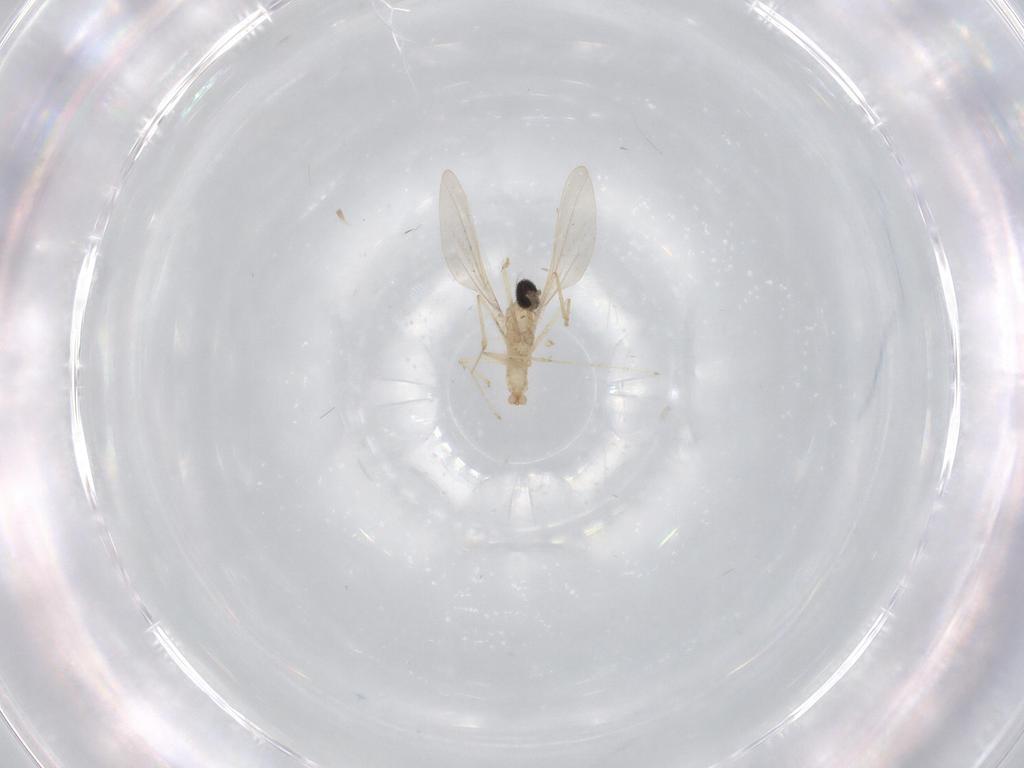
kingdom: Animalia
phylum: Arthropoda
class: Insecta
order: Diptera
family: Cecidomyiidae
